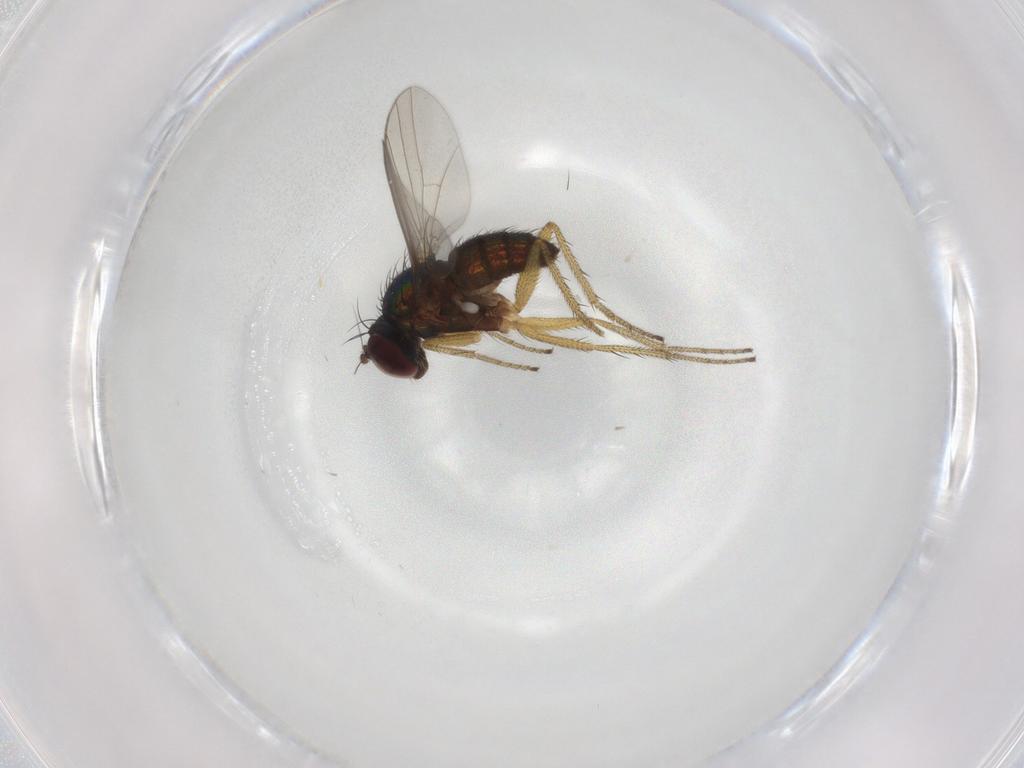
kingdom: Animalia
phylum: Arthropoda
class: Insecta
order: Diptera
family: Dolichopodidae
